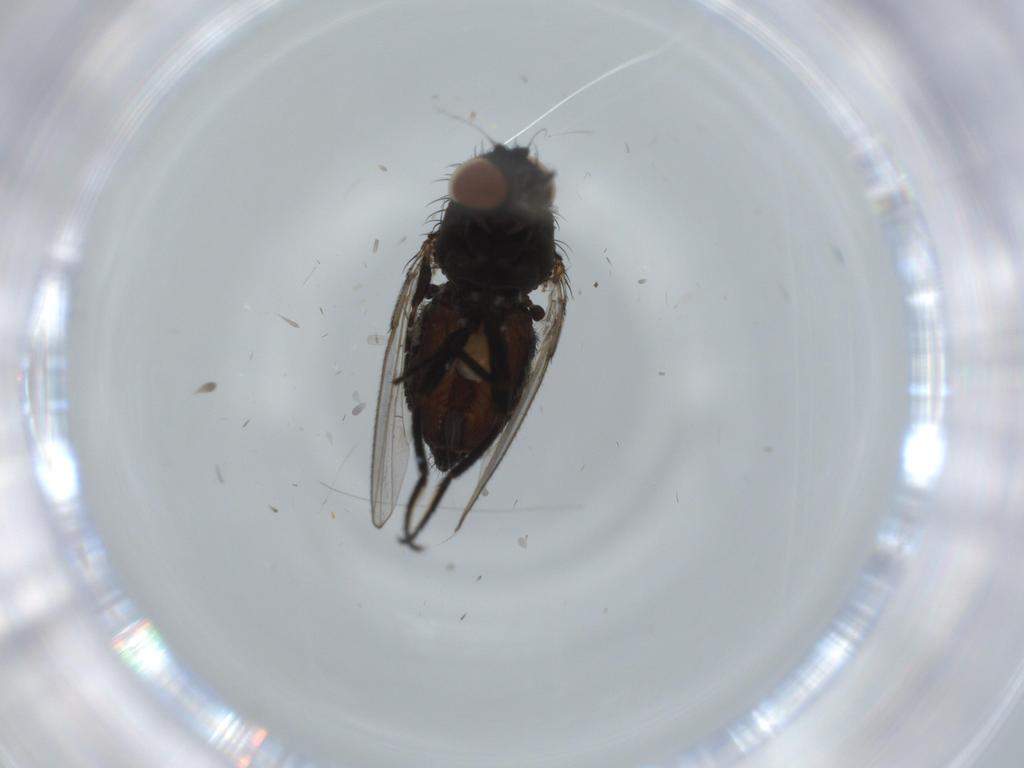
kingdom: Animalia
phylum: Arthropoda
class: Insecta
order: Diptera
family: Milichiidae
